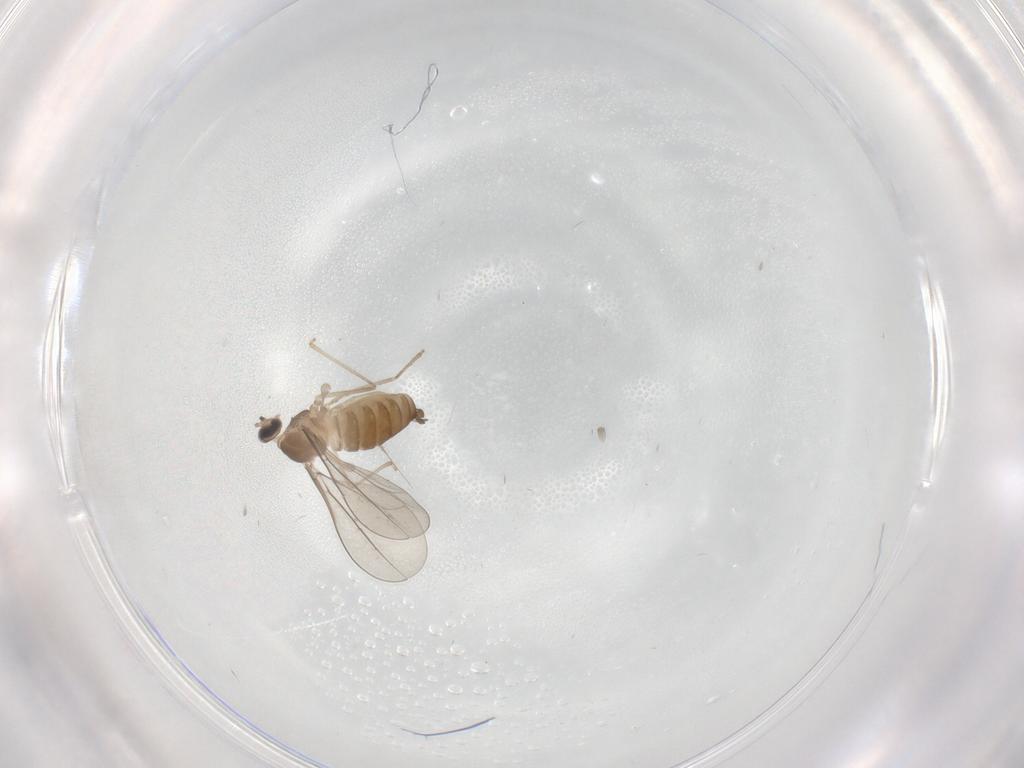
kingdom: Animalia
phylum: Arthropoda
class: Insecta
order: Diptera
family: Cecidomyiidae
